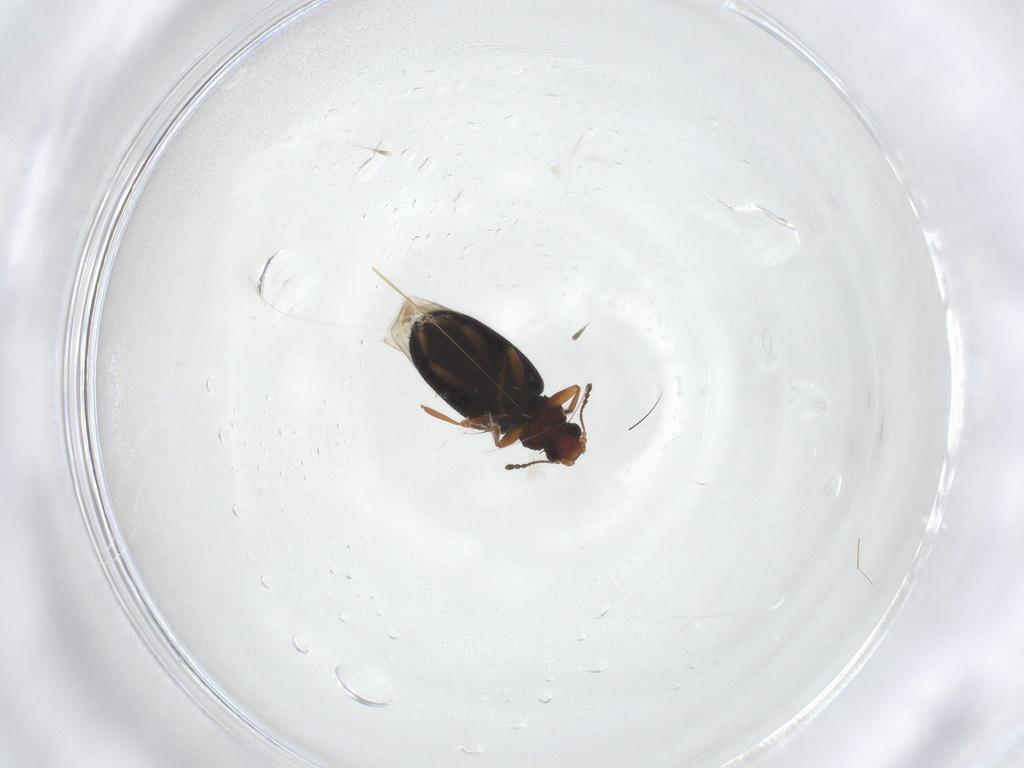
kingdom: Animalia
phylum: Arthropoda
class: Insecta
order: Coleoptera
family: Latridiidae
